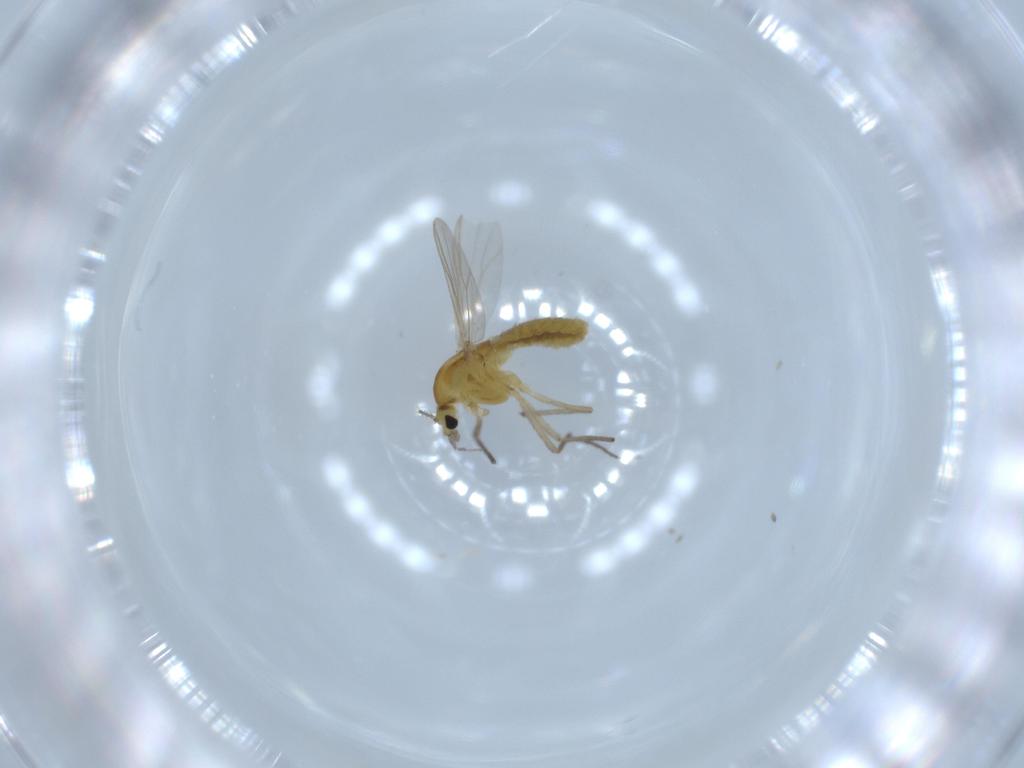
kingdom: Animalia
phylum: Arthropoda
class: Insecta
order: Diptera
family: Chironomidae
